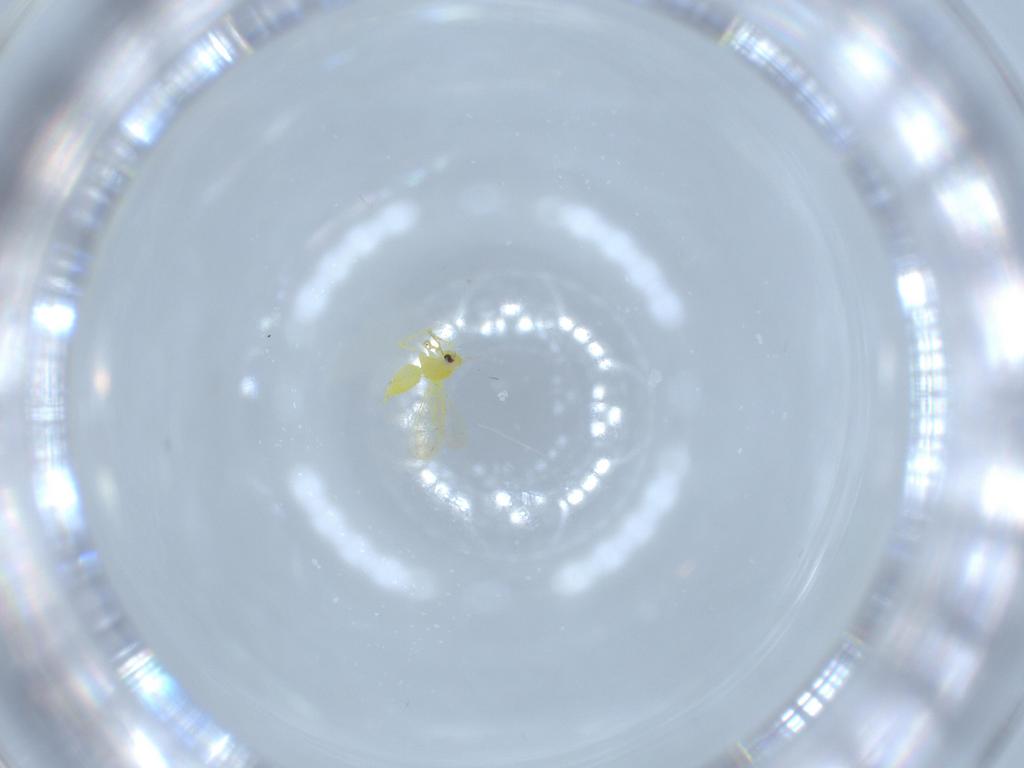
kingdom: Animalia
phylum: Arthropoda
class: Insecta
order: Hemiptera
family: Aleyrodidae
